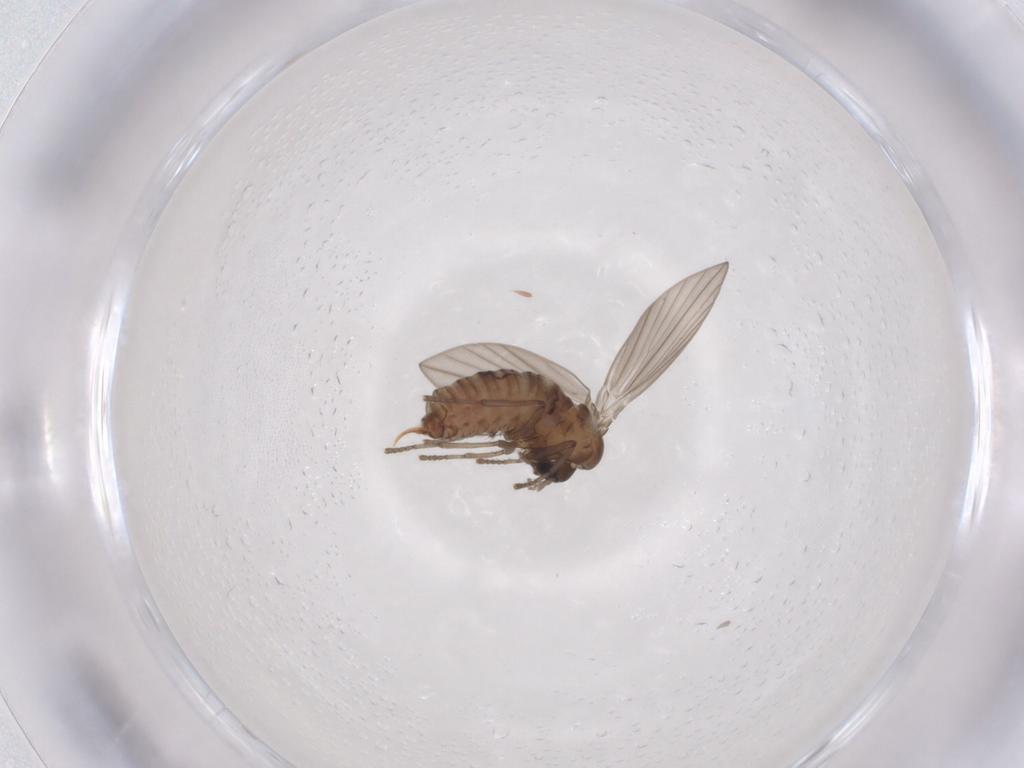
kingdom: Animalia
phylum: Arthropoda
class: Insecta
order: Diptera
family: Psychodidae
